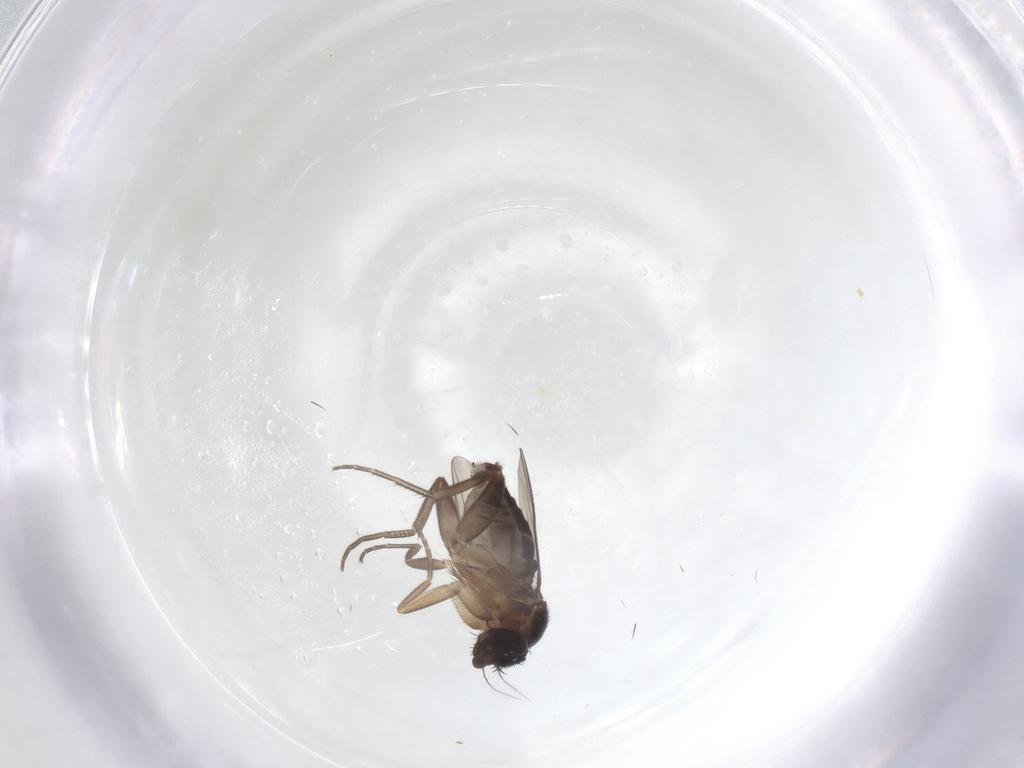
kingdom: Animalia
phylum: Arthropoda
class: Insecta
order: Diptera
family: Phoridae
